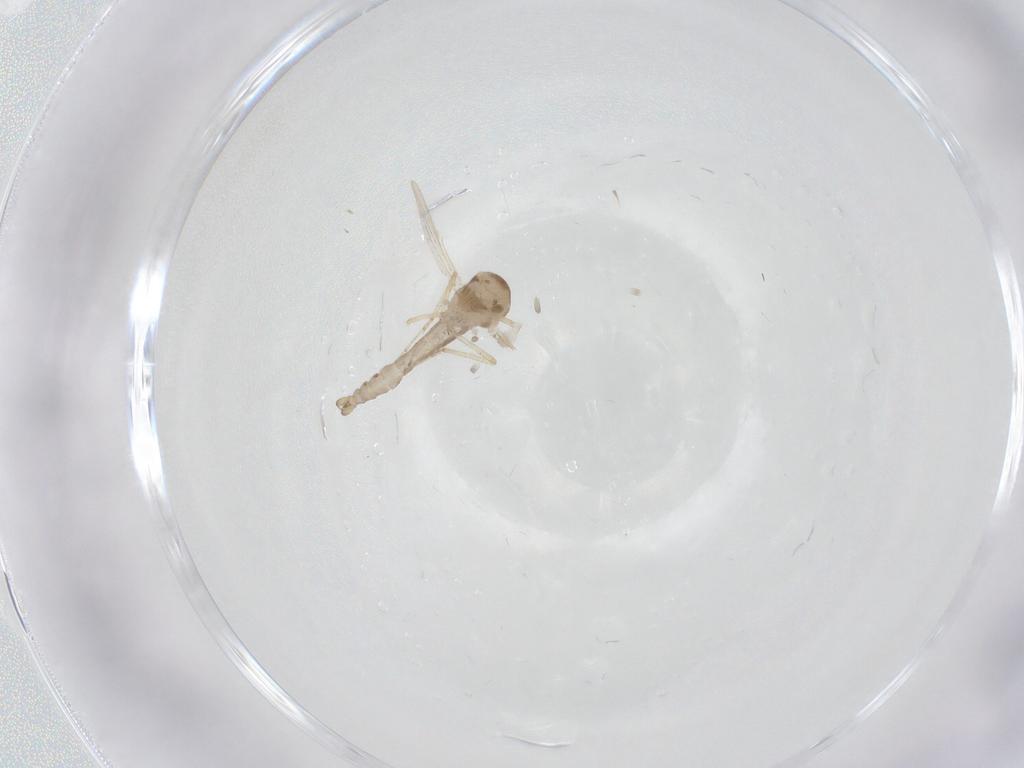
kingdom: Animalia
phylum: Arthropoda
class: Insecta
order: Diptera
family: Ceratopogonidae
